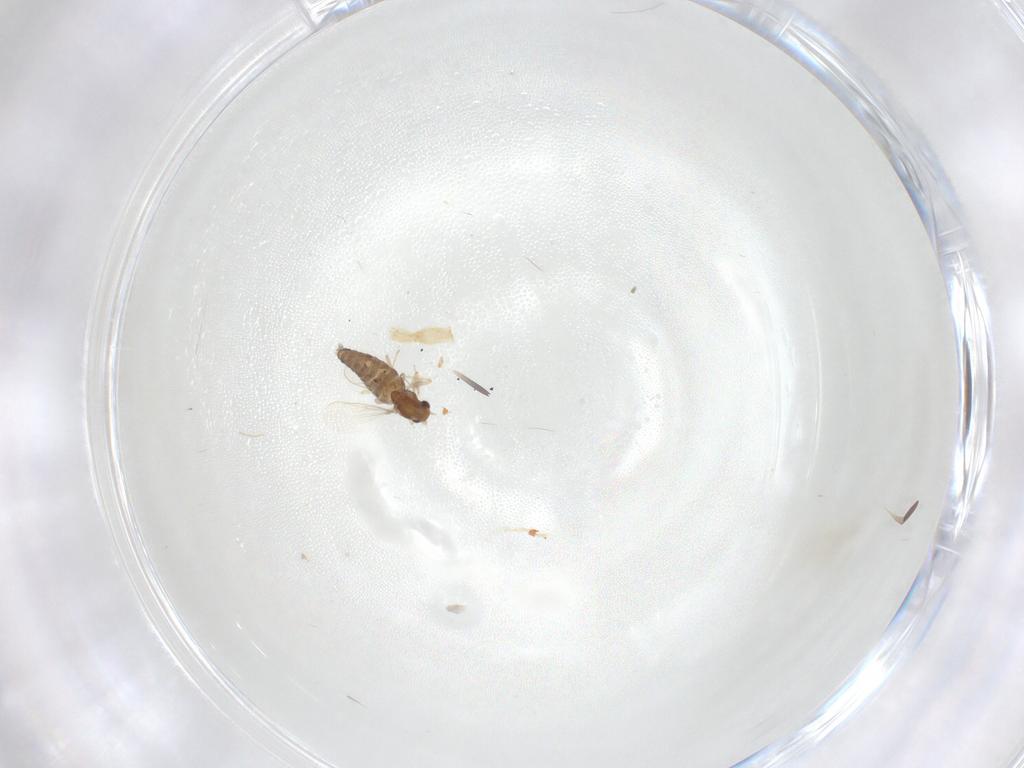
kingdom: Animalia
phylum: Arthropoda
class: Insecta
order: Diptera
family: Chironomidae
